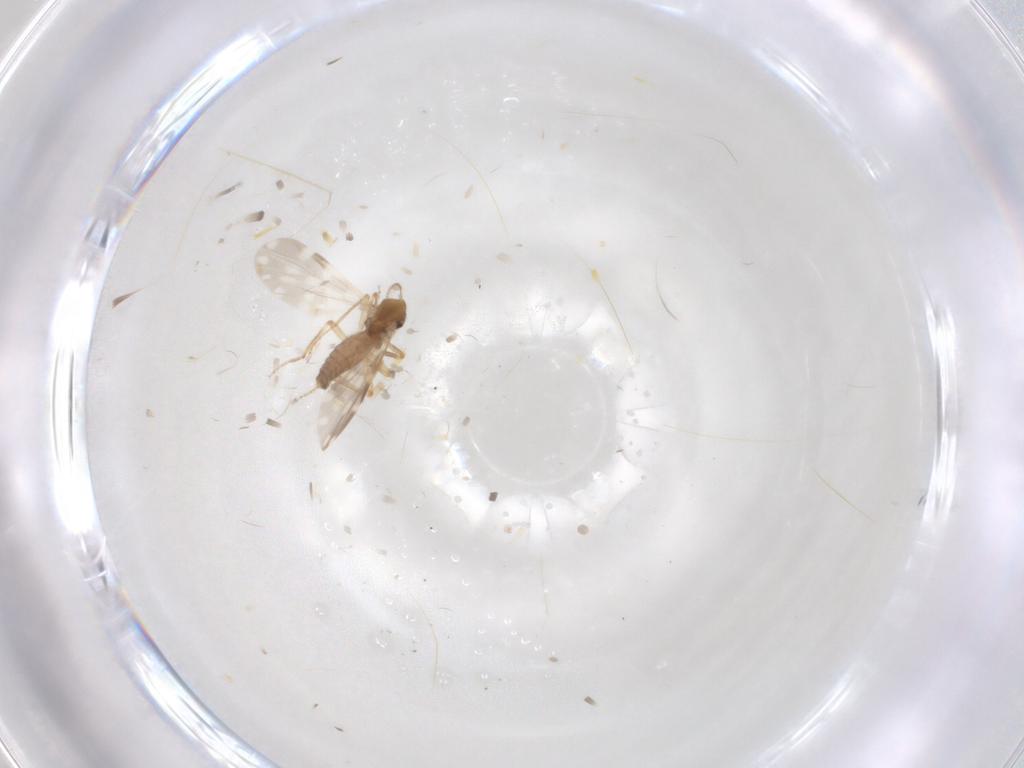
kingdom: Animalia
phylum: Arthropoda
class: Insecta
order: Diptera
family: Ceratopogonidae
